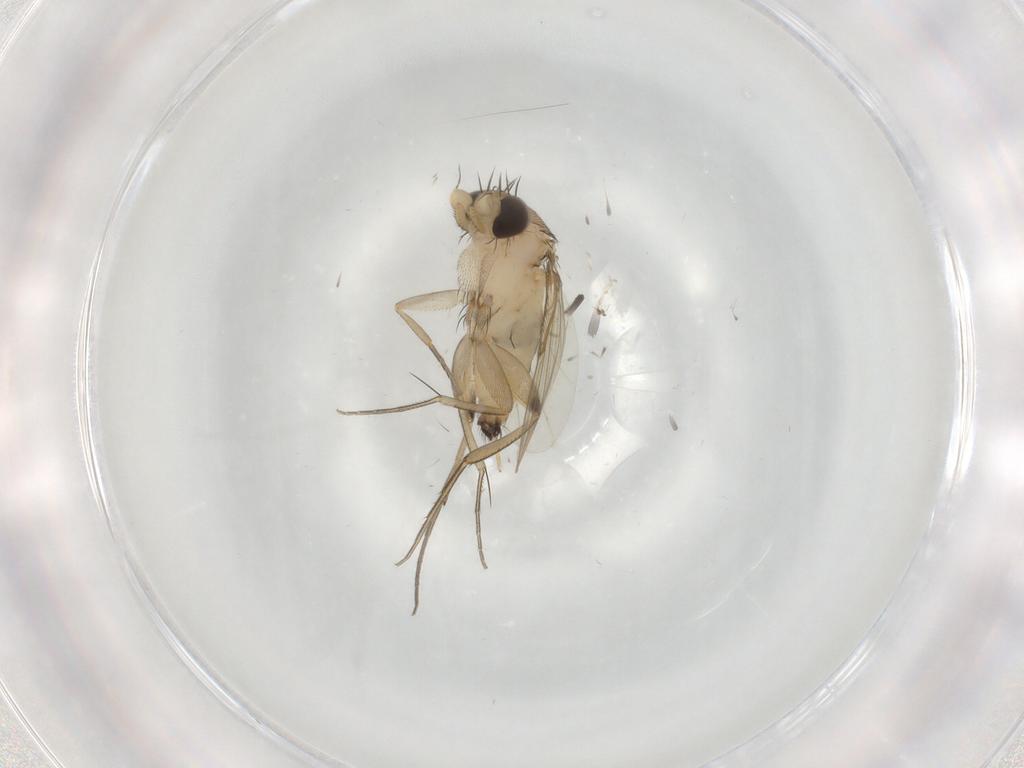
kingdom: Animalia
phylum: Arthropoda
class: Insecta
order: Diptera
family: Phoridae
